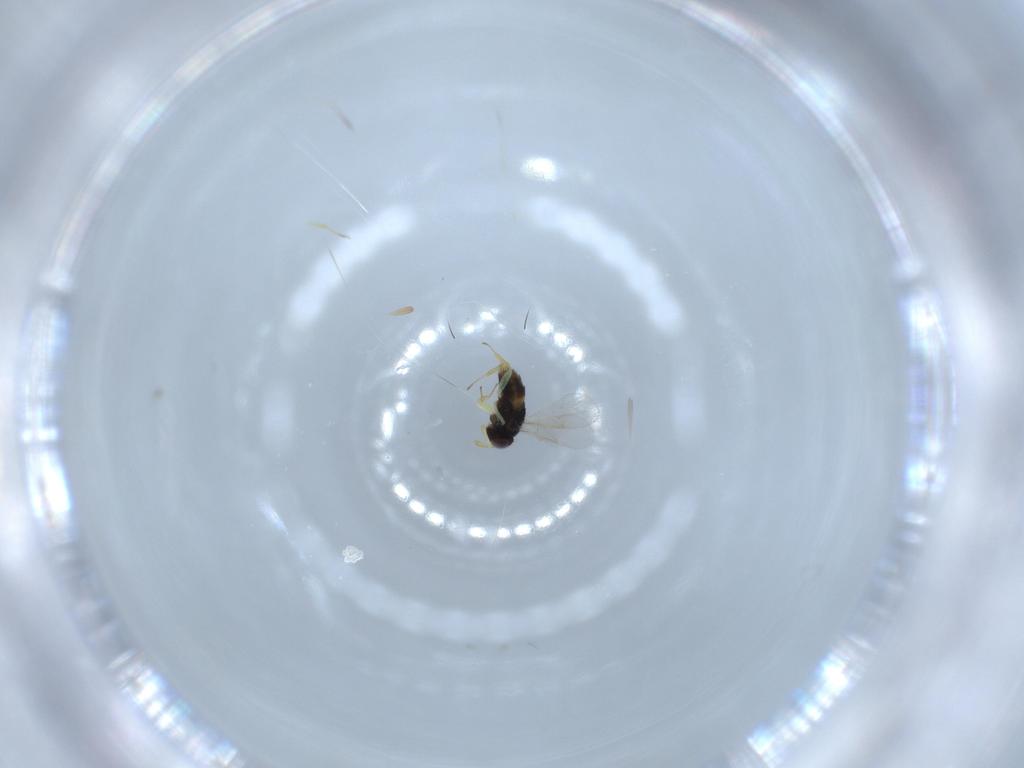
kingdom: Animalia
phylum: Arthropoda
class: Insecta
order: Hymenoptera
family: Aphelinidae
